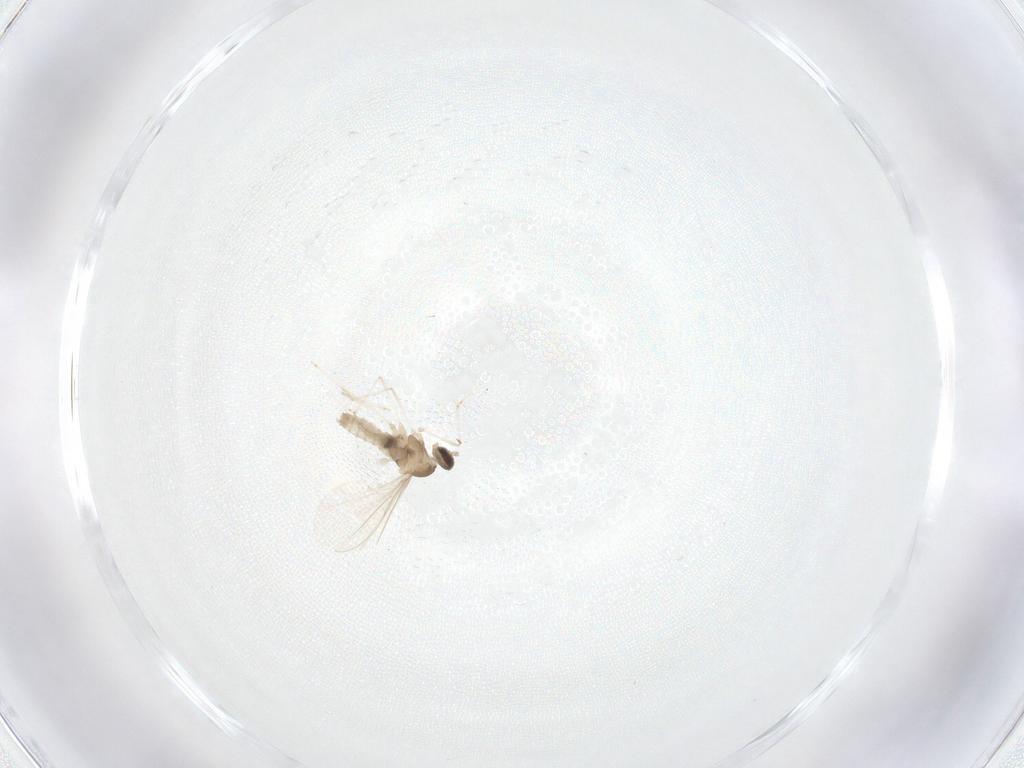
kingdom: Animalia
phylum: Arthropoda
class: Insecta
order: Diptera
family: Cecidomyiidae
